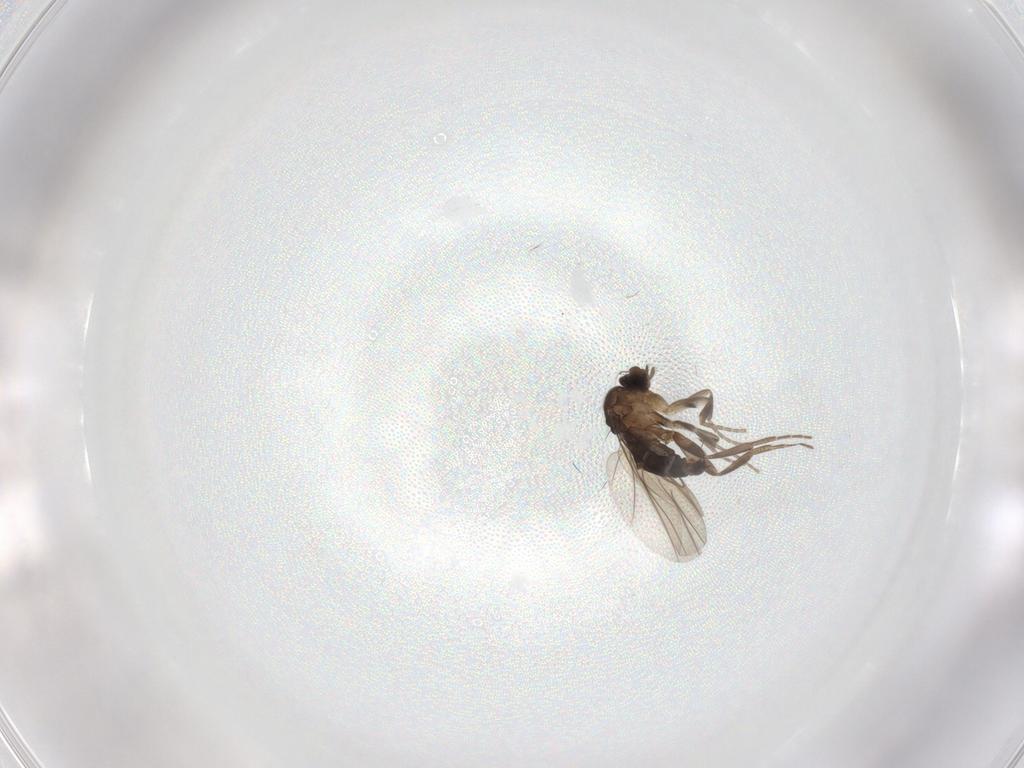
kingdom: Animalia
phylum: Arthropoda
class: Insecta
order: Diptera
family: Phoridae
